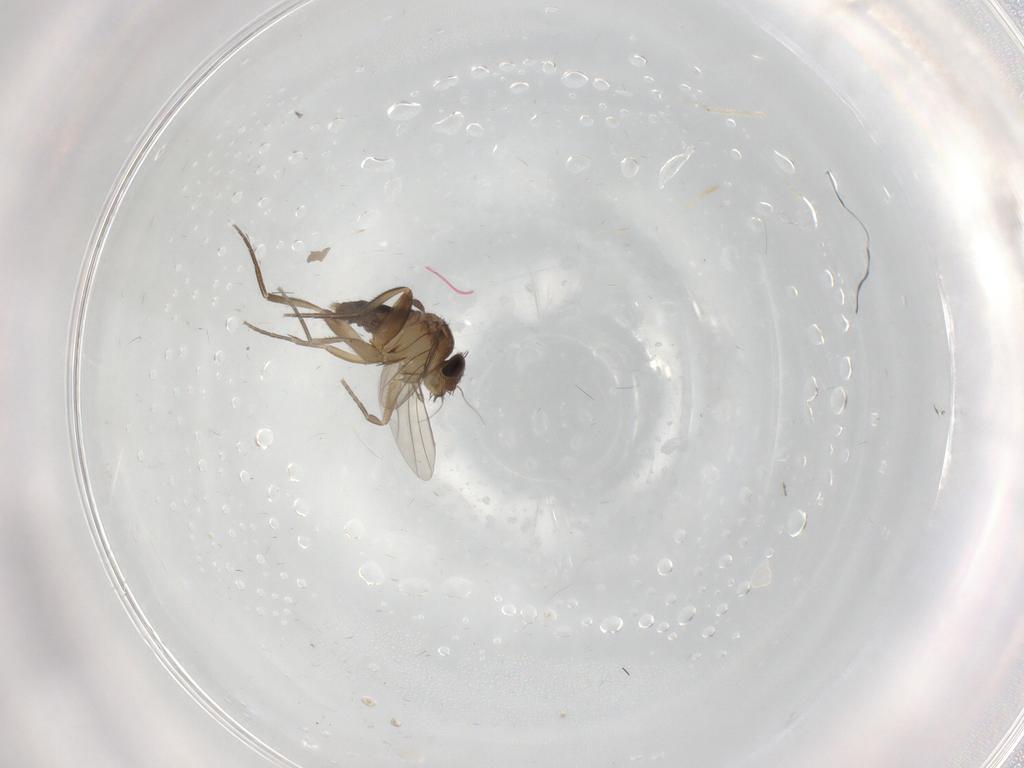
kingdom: Animalia
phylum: Arthropoda
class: Insecta
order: Diptera
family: Phoridae
